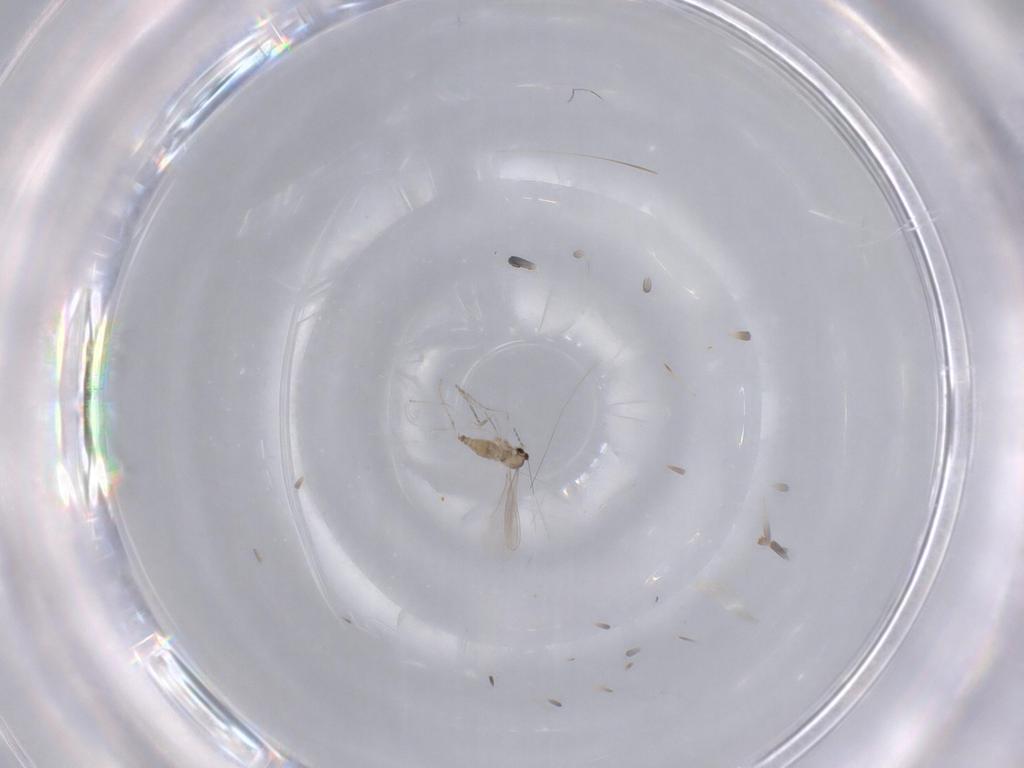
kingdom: Animalia
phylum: Arthropoda
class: Insecta
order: Diptera
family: Cecidomyiidae
